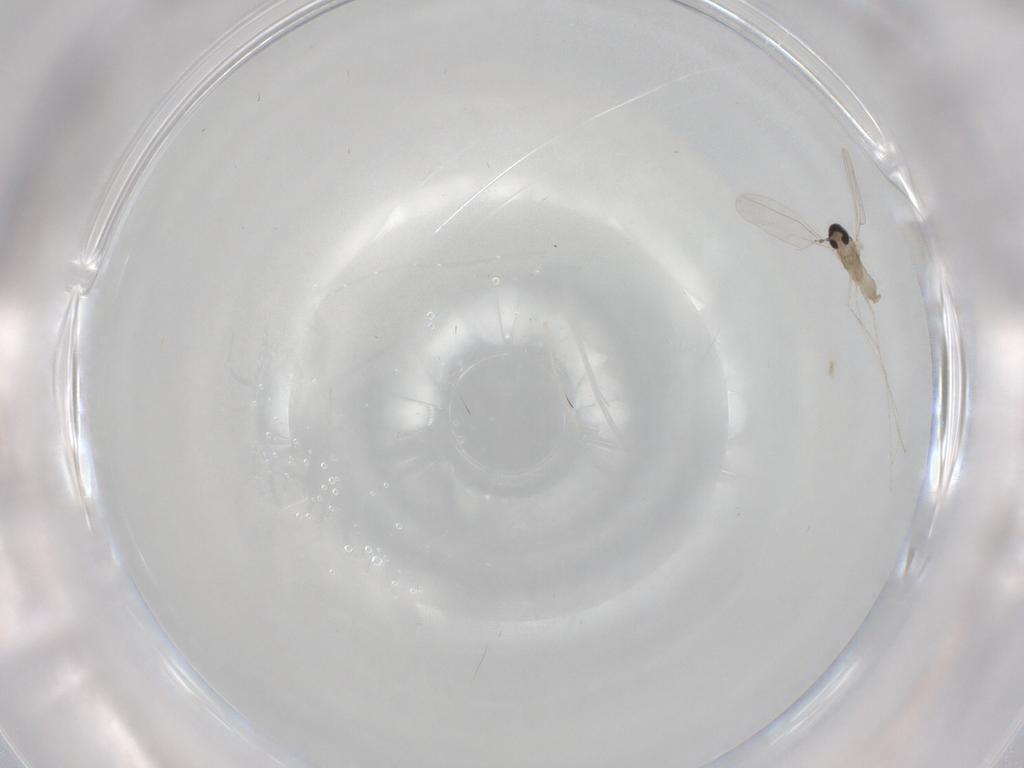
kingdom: Animalia
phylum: Arthropoda
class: Insecta
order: Diptera
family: Cecidomyiidae
